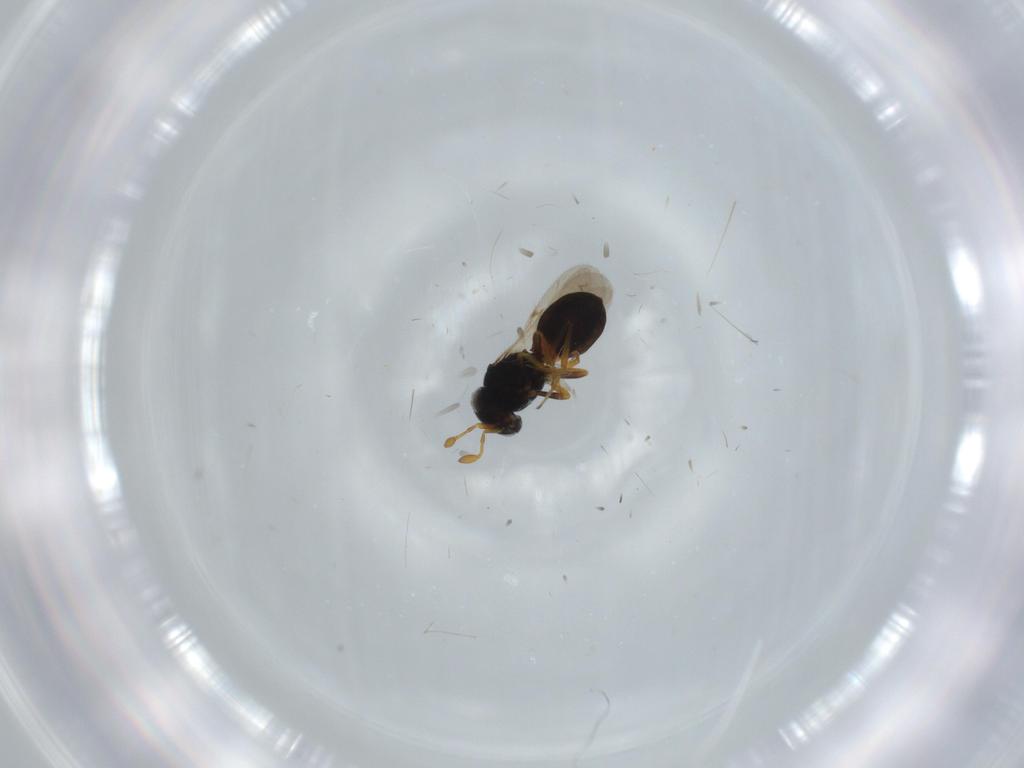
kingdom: Animalia
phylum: Arthropoda
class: Insecta
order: Hymenoptera
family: Scelionidae
